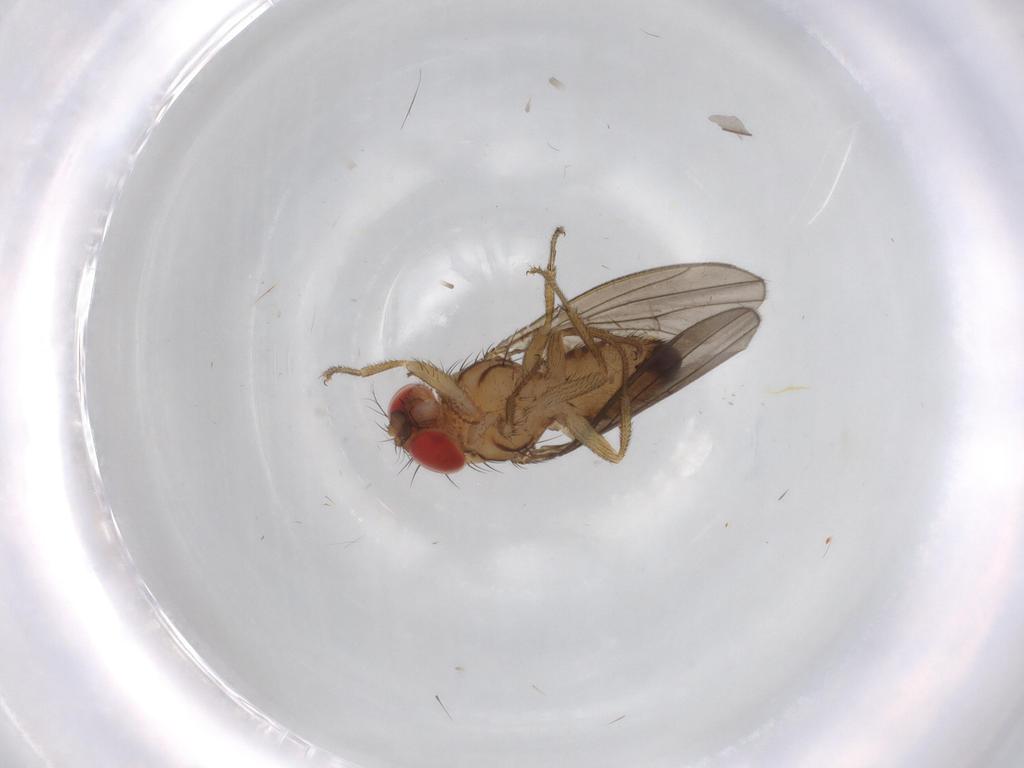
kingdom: Animalia
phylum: Arthropoda
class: Insecta
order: Diptera
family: Drosophilidae
